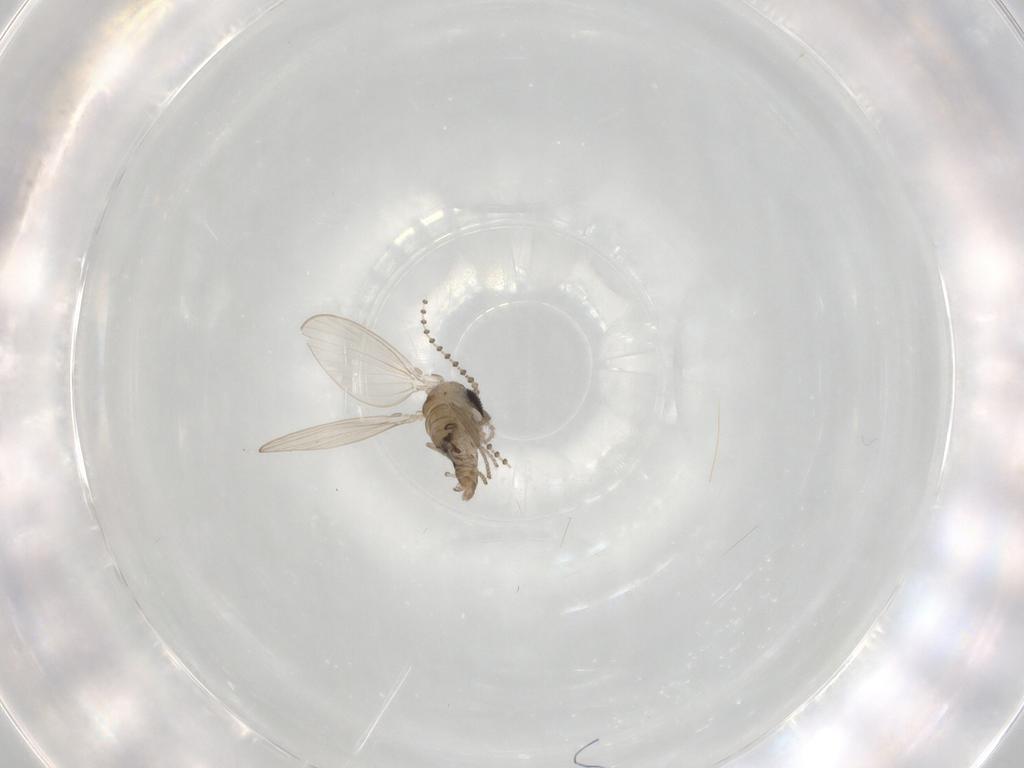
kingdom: Animalia
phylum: Arthropoda
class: Insecta
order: Diptera
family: Psychodidae
